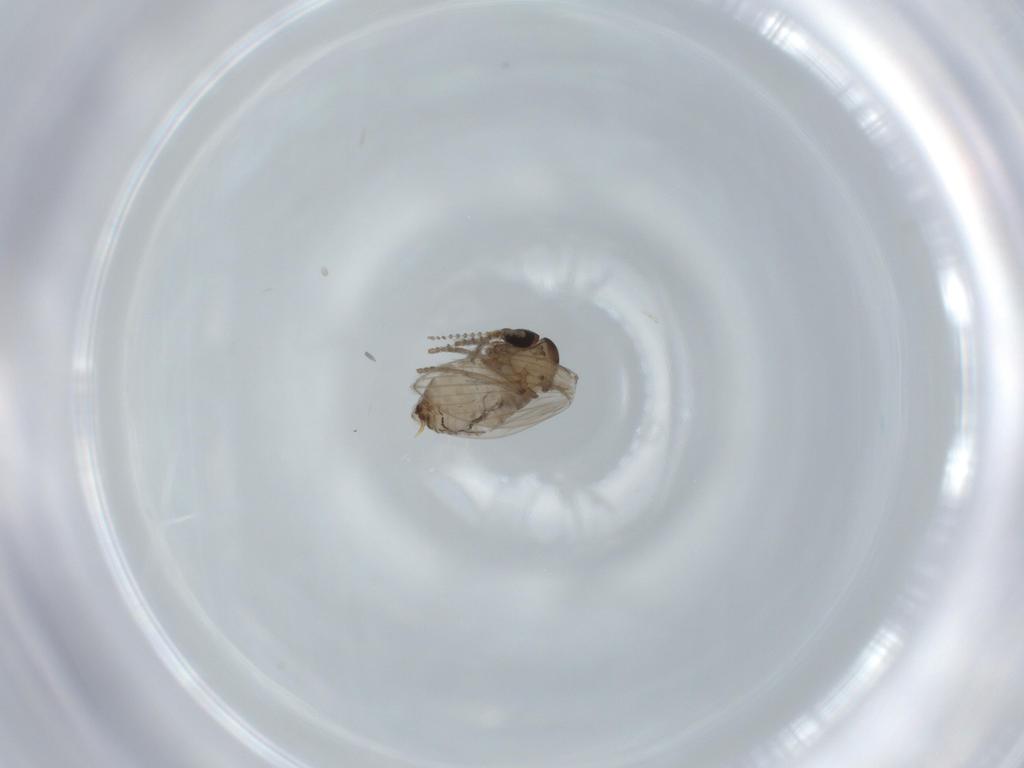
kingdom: Animalia
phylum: Arthropoda
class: Insecta
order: Diptera
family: Psychodidae
